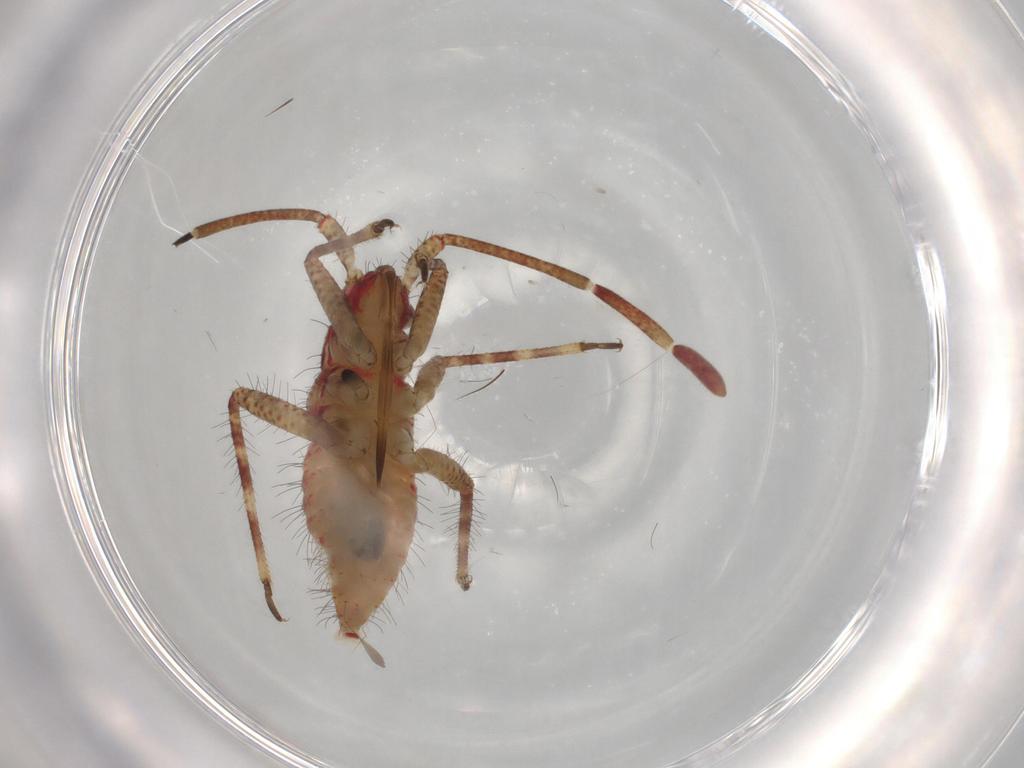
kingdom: Animalia
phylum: Arthropoda
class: Insecta
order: Hemiptera
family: Miridae
